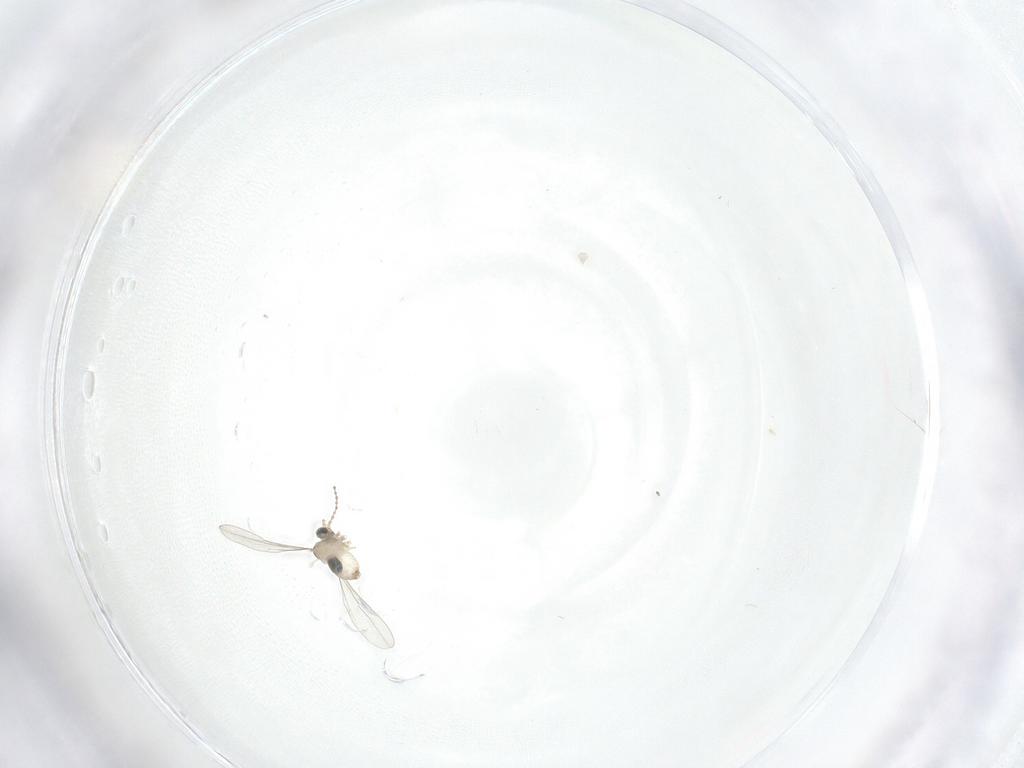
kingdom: Animalia
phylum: Arthropoda
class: Insecta
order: Diptera
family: Cecidomyiidae
